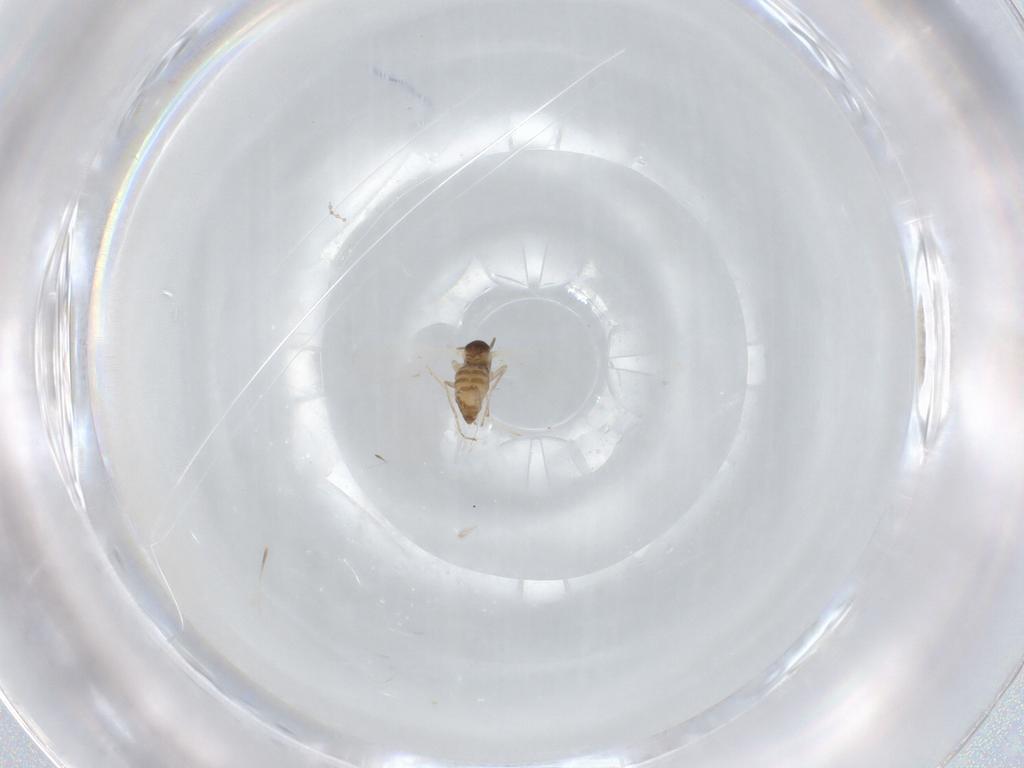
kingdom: Animalia
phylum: Arthropoda
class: Insecta
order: Diptera
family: Cecidomyiidae
